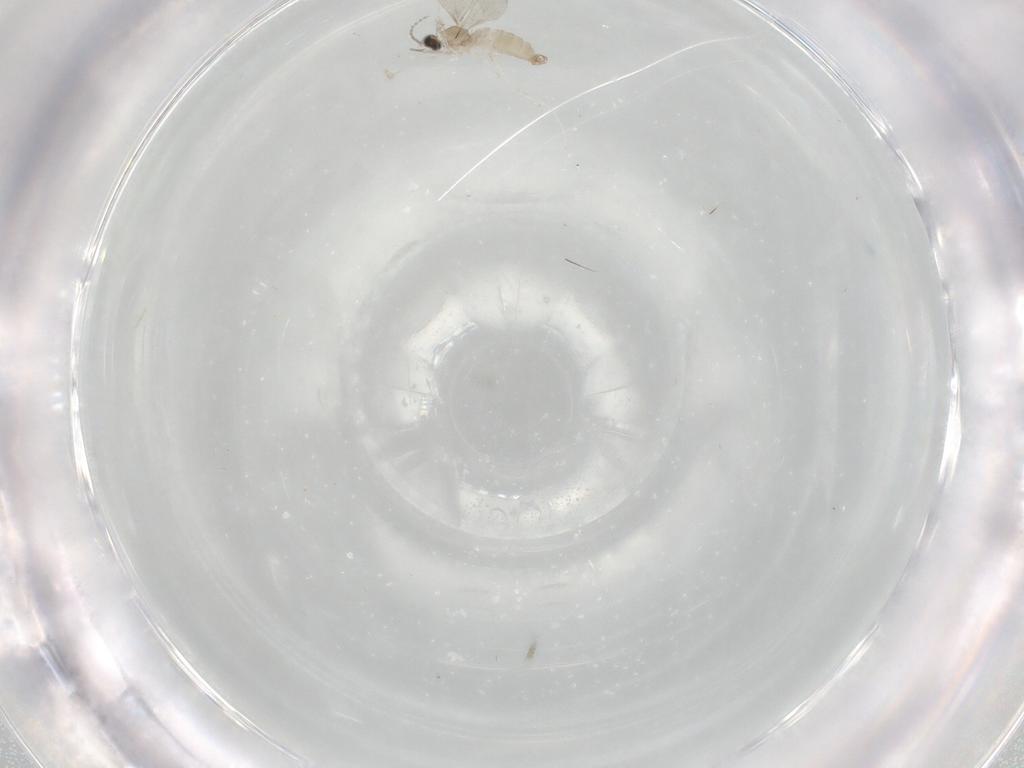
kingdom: Animalia
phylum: Arthropoda
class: Insecta
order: Diptera
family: Cecidomyiidae
